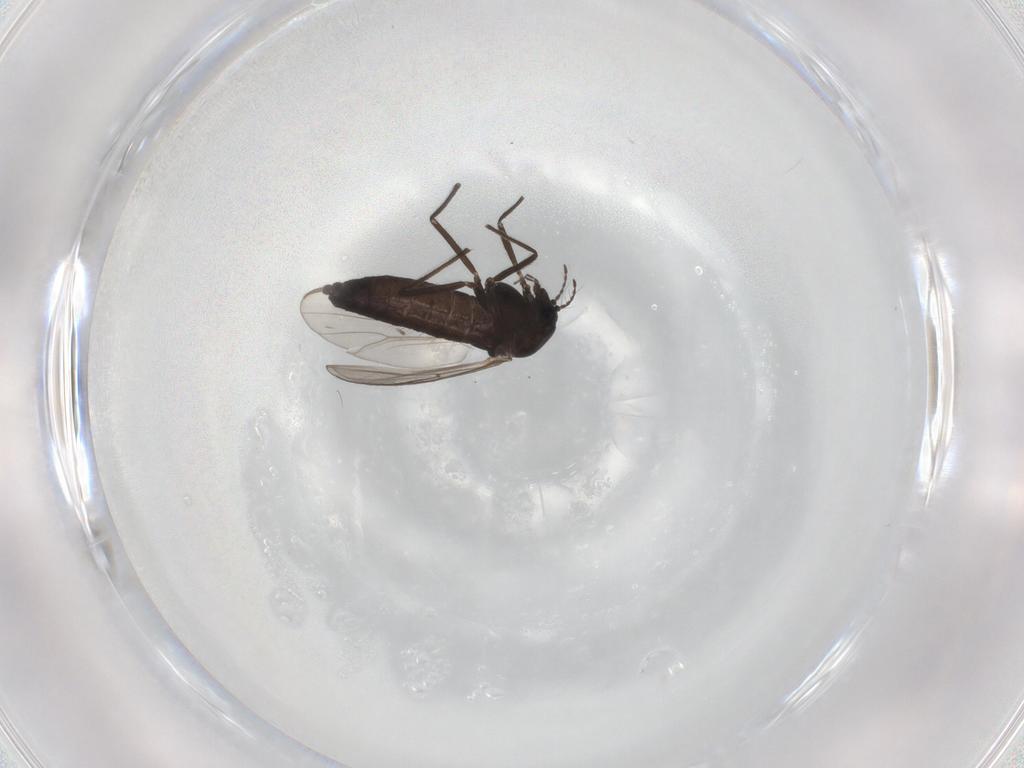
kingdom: Animalia
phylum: Arthropoda
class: Insecta
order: Diptera
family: Chironomidae
